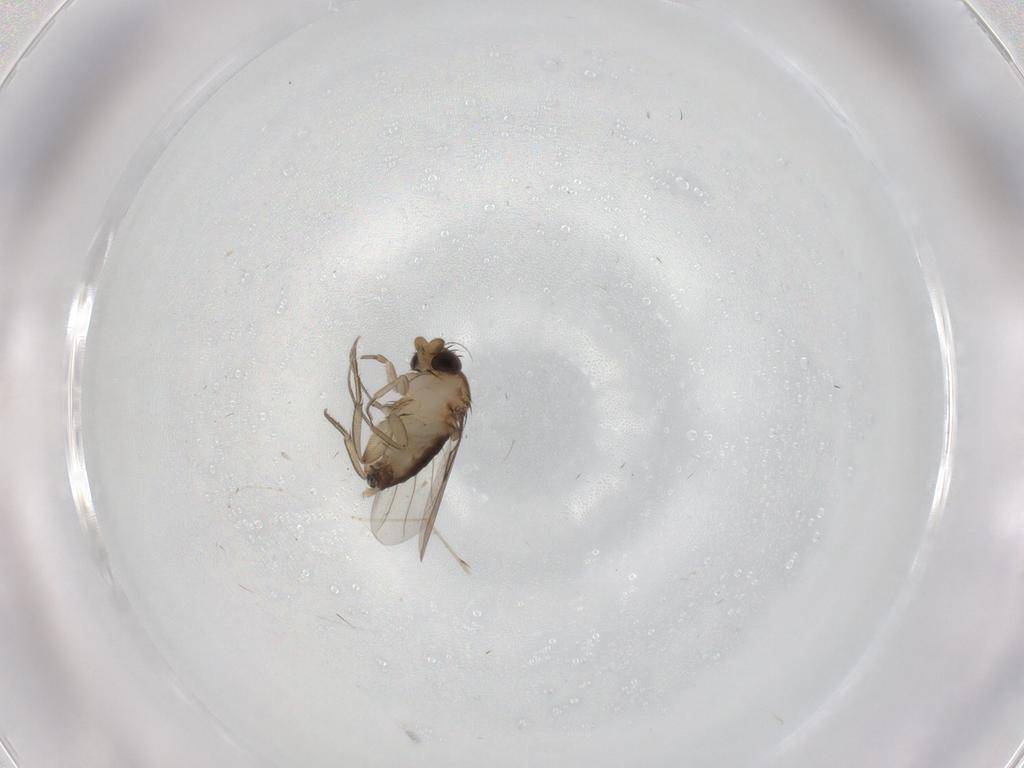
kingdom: Animalia
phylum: Arthropoda
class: Insecta
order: Diptera
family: Phoridae
